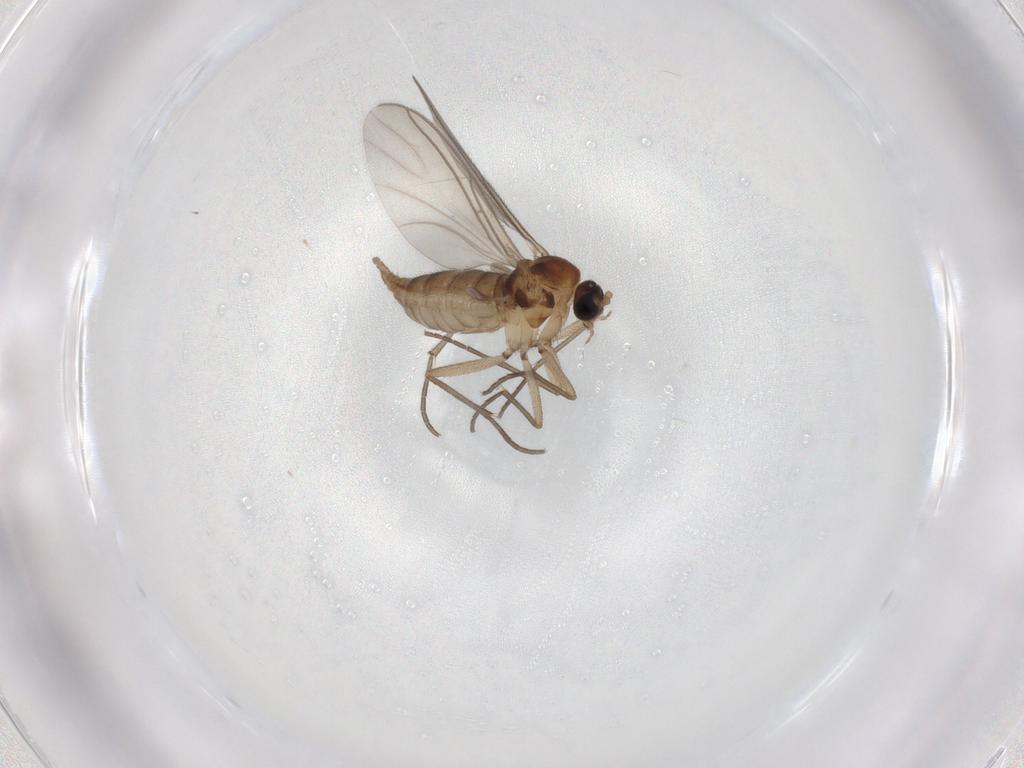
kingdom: Animalia
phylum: Arthropoda
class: Insecta
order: Diptera
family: Sciaridae
